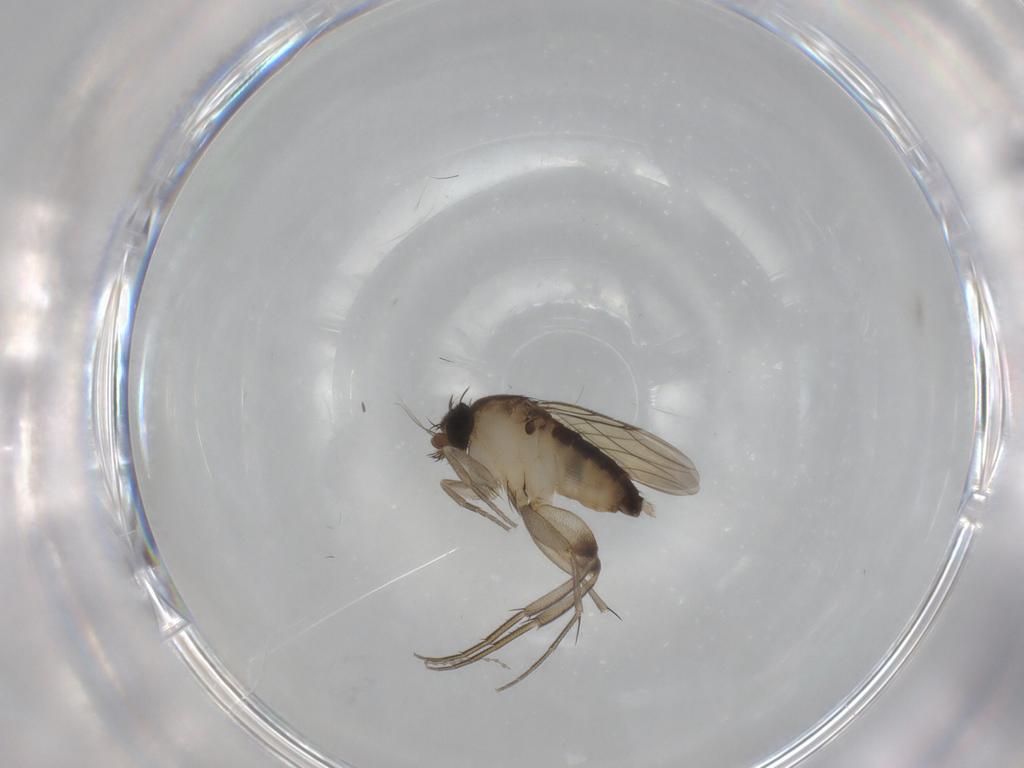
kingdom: Animalia
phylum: Arthropoda
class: Insecta
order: Diptera
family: Phoridae
